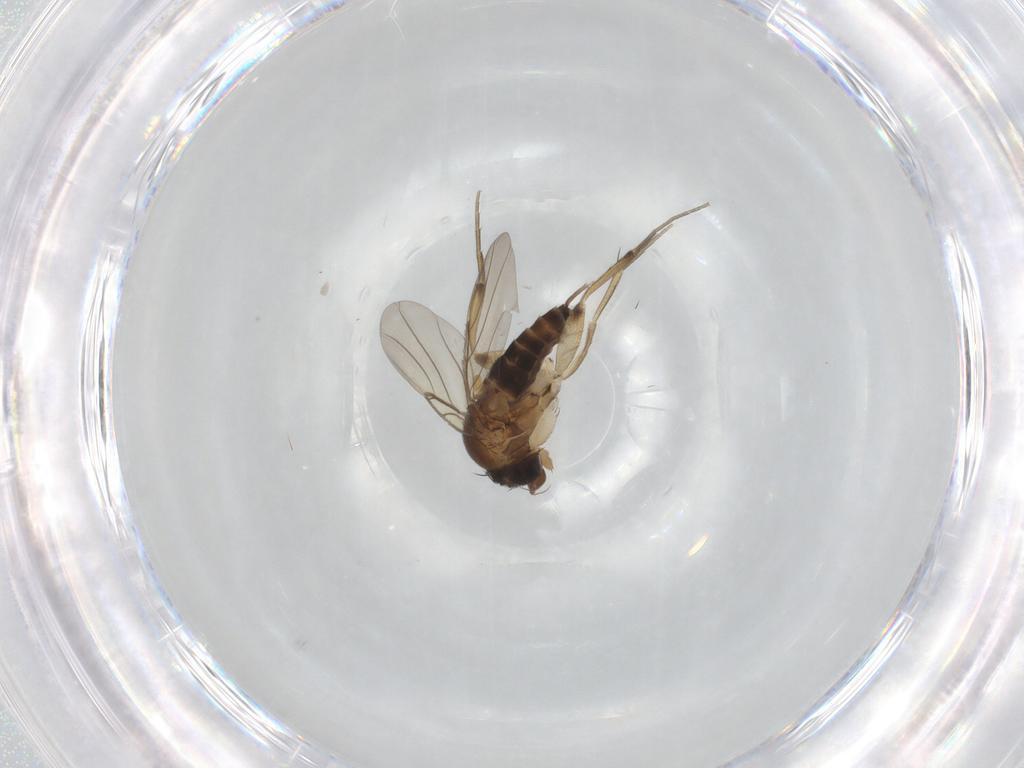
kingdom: Animalia
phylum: Arthropoda
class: Insecta
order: Diptera
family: Phoridae
